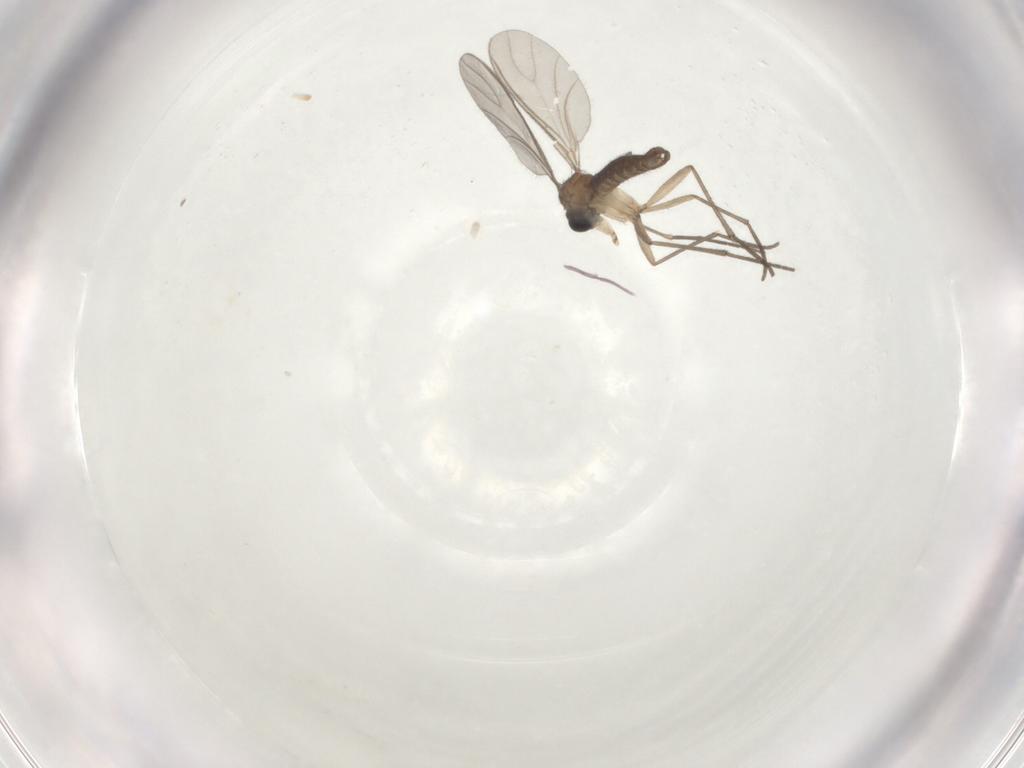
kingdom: Animalia
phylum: Arthropoda
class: Insecta
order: Diptera
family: Sciaridae
